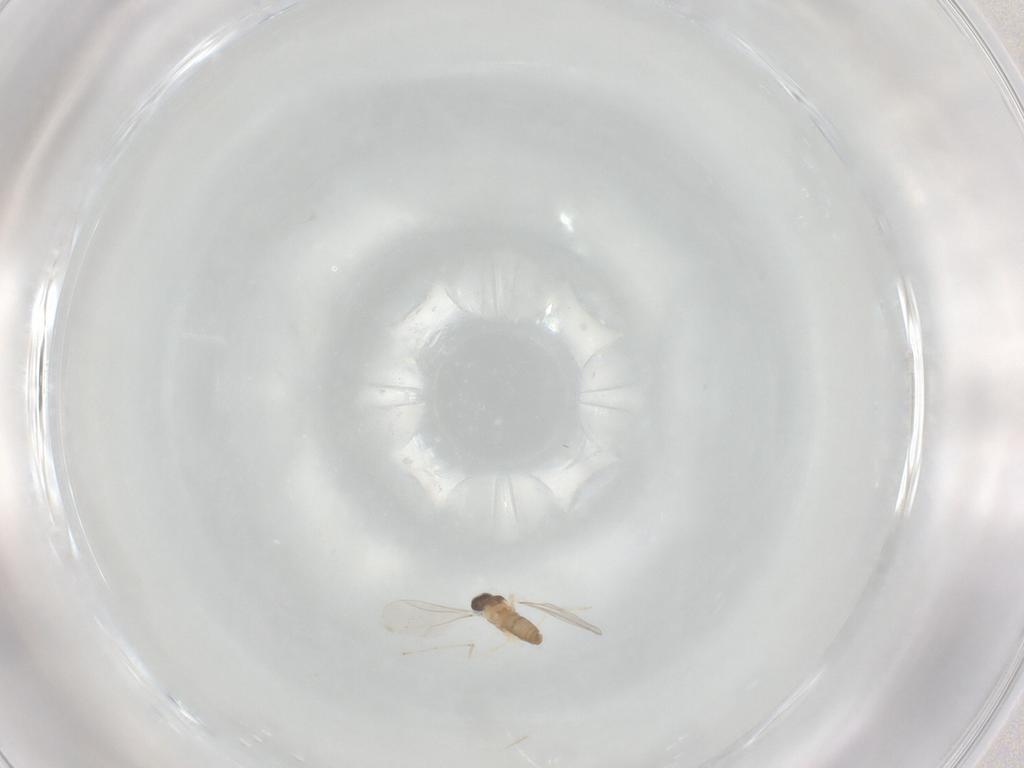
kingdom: Animalia
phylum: Arthropoda
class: Insecta
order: Diptera
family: Cecidomyiidae
